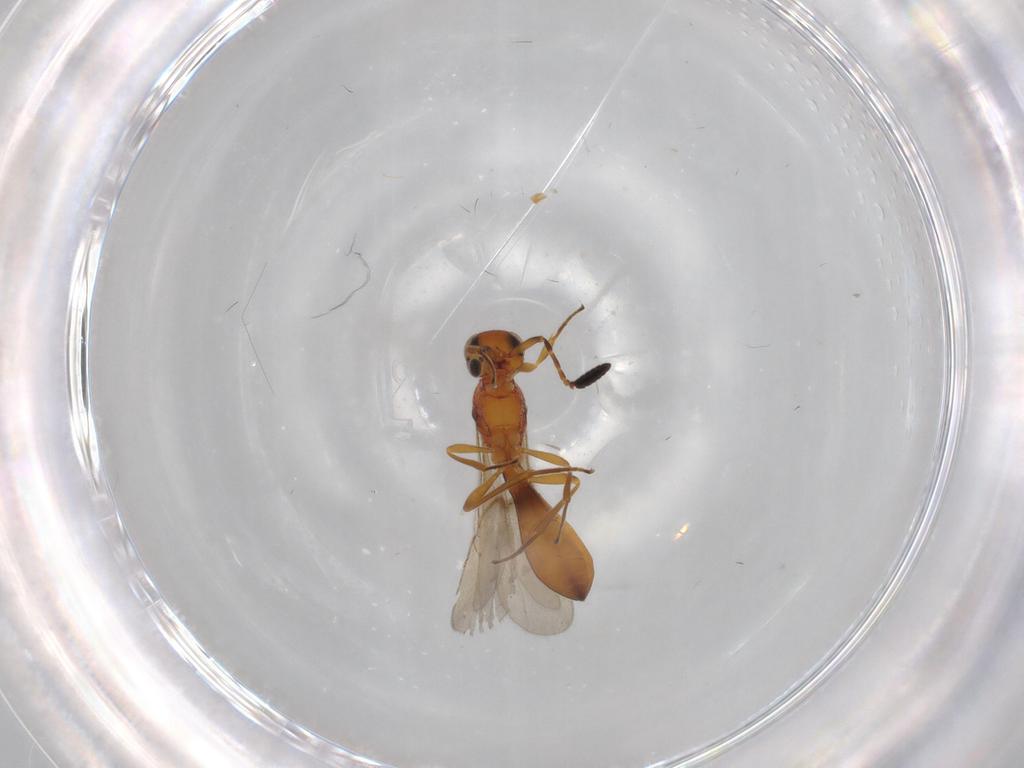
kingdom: Animalia
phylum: Arthropoda
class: Insecta
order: Hymenoptera
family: Scelionidae
